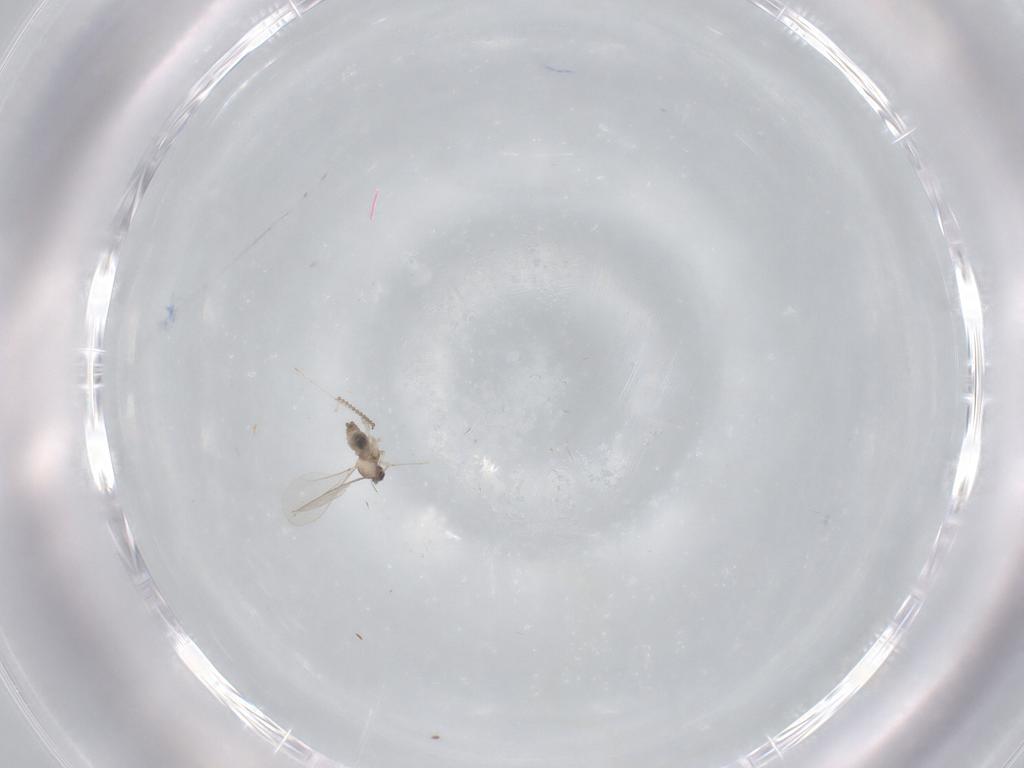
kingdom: Animalia
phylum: Arthropoda
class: Insecta
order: Diptera
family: Cecidomyiidae
